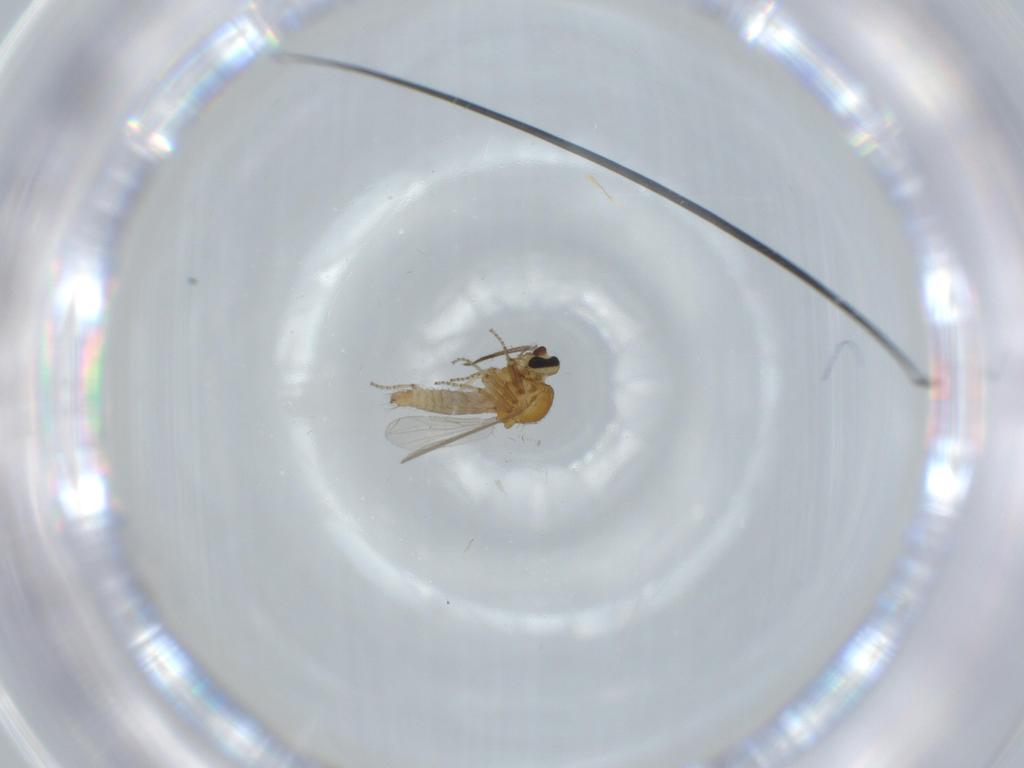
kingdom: Animalia
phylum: Arthropoda
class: Insecta
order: Diptera
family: Ceratopogonidae
